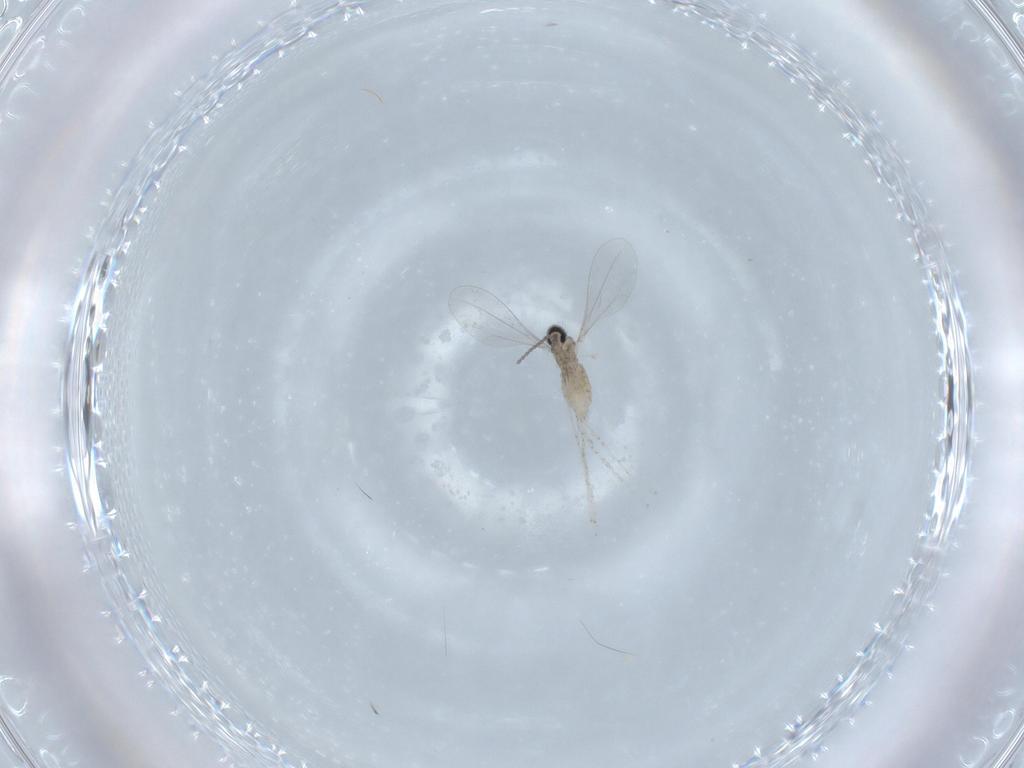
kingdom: Animalia
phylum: Arthropoda
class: Insecta
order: Diptera
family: Cecidomyiidae
